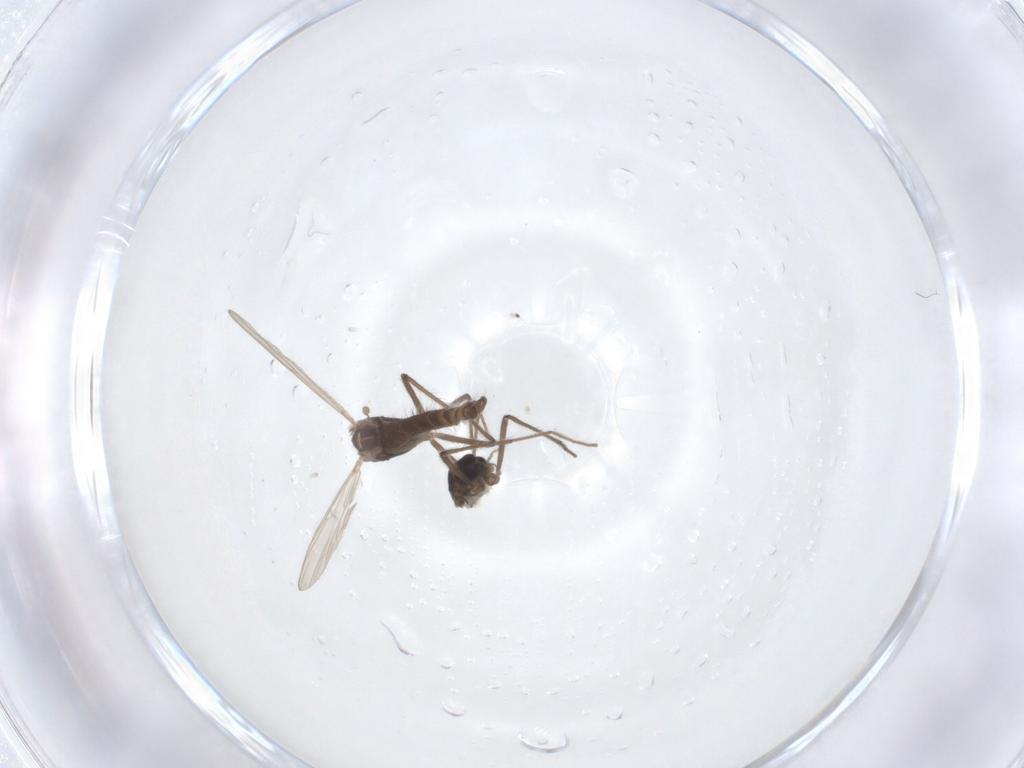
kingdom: Animalia
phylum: Arthropoda
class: Insecta
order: Diptera
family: Chironomidae
